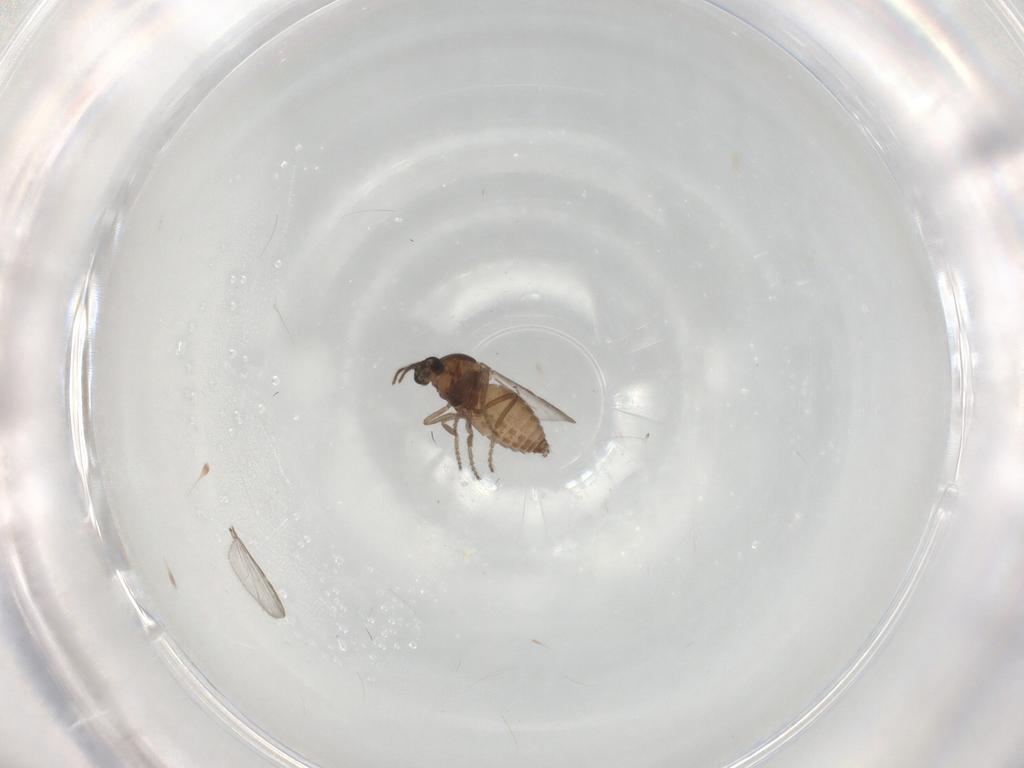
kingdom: Animalia
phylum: Arthropoda
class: Insecta
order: Diptera
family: Ceratopogonidae
